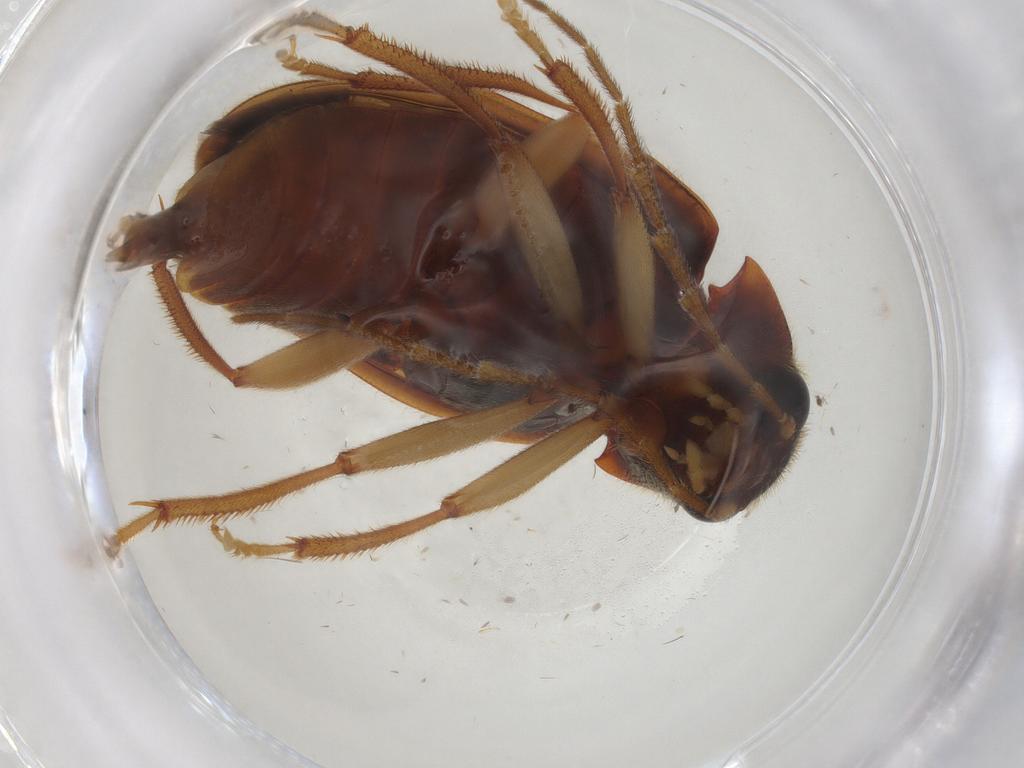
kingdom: Animalia
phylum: Arthropoda
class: Insecta
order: Coleoptera
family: Ptilodactylidae
